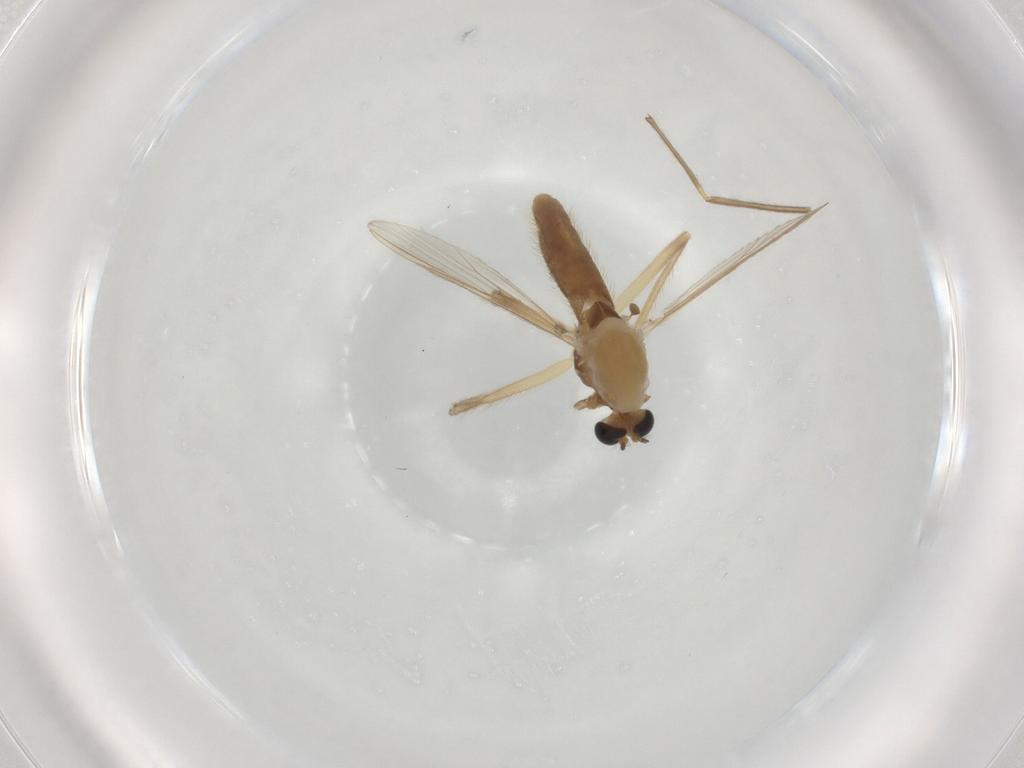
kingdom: Animalia
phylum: Arthropoda
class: Insecta
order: Diptera
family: Chironomidae
